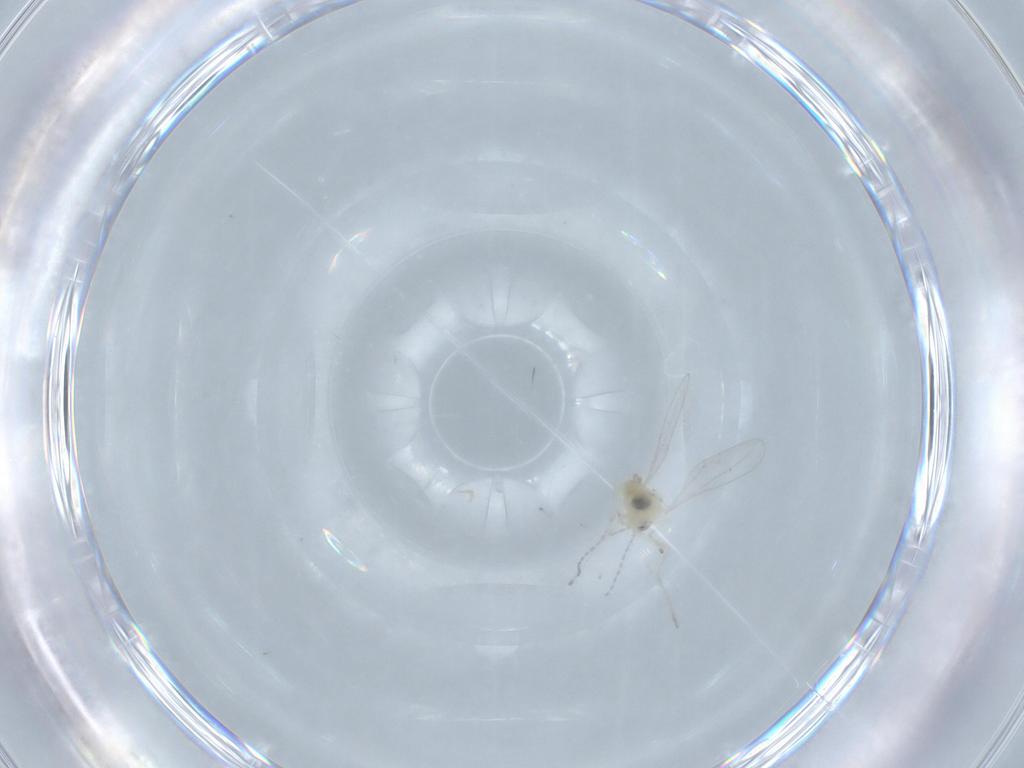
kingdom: Animalia
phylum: Arthropoda
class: Insecta
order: Diptera
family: Cecidomyiidae
